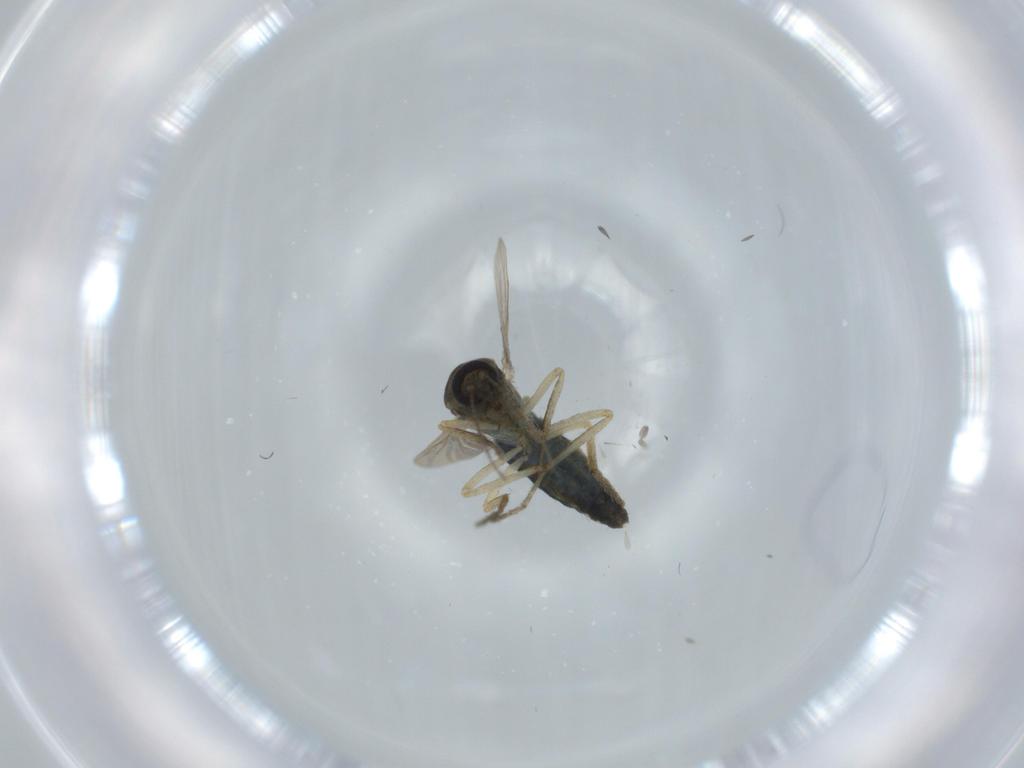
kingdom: Animalia
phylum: Arthropoda
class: Insecta
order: Diptera
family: Ceratopogonidae
